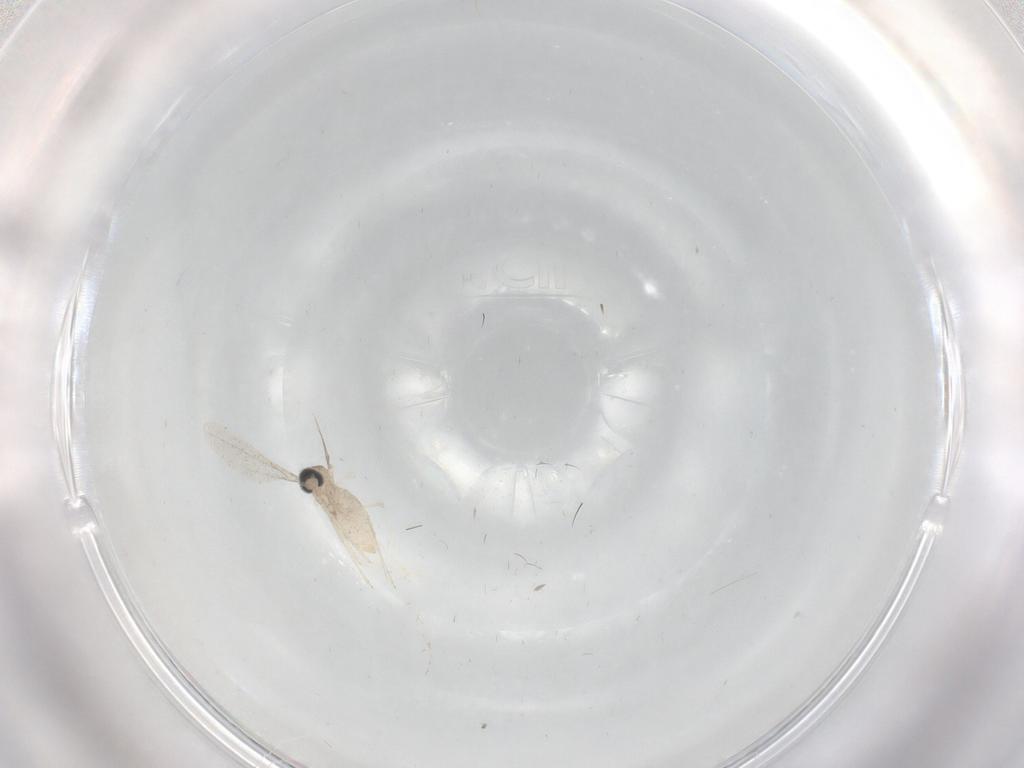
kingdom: Animalia
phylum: Arthropoda
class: Insecta
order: Diptera
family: Cecidomyiidae
